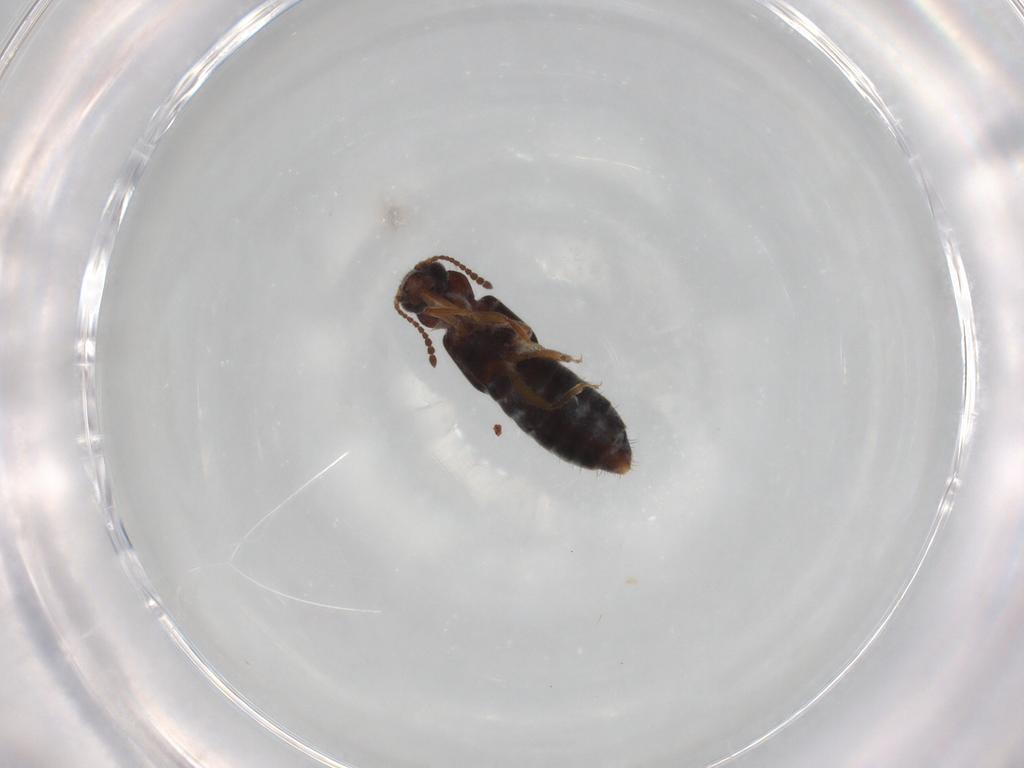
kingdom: Animalia
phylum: Arthropoda
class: Insecta
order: Coleoptera
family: Staphylinidae
